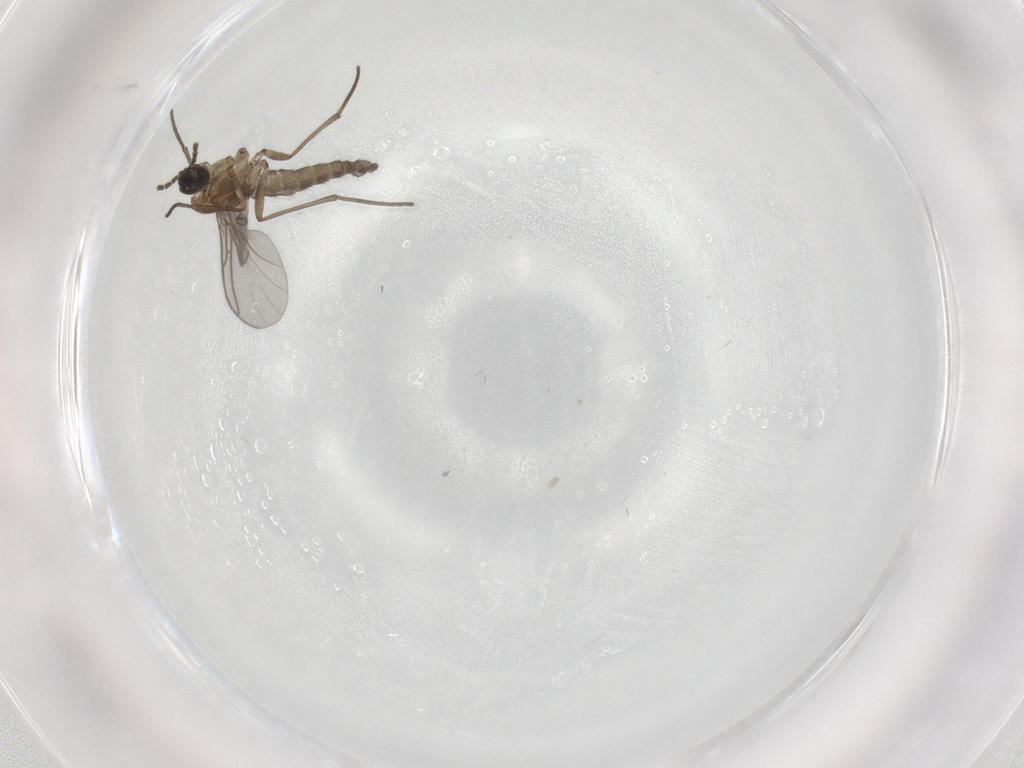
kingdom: Animalia
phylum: Arthropoda
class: Insecta
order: Diptera
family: Sciaridae
